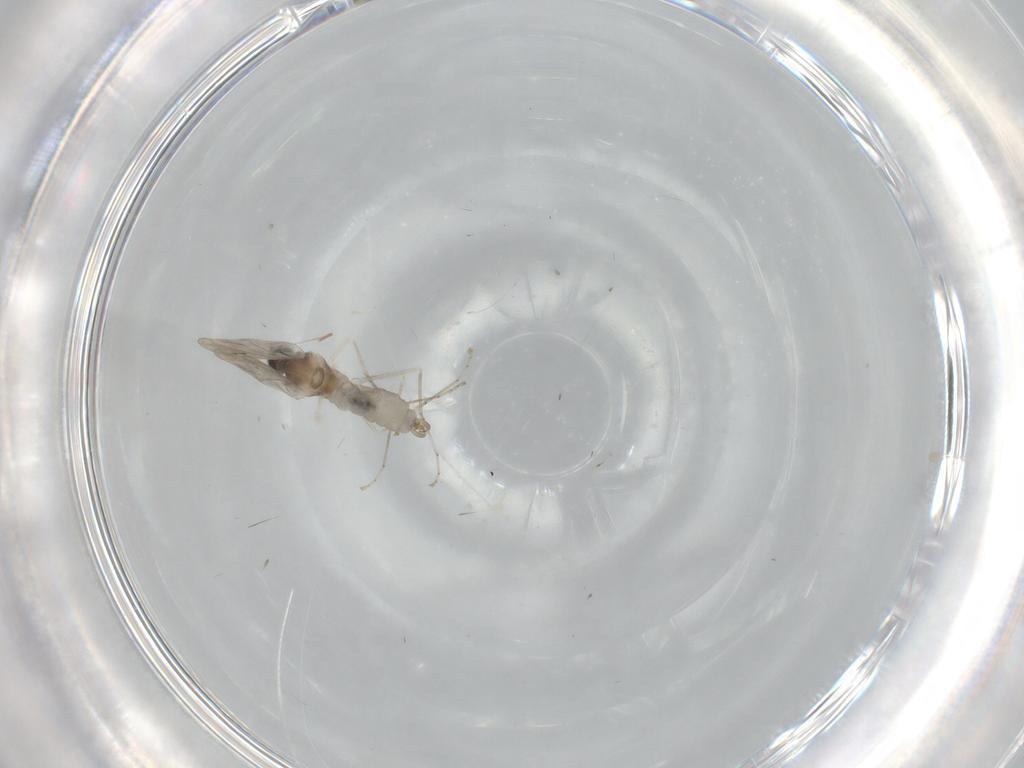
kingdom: Animalia
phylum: Arthropoda
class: Insecta
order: Diptera
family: Cecidomyiidae
